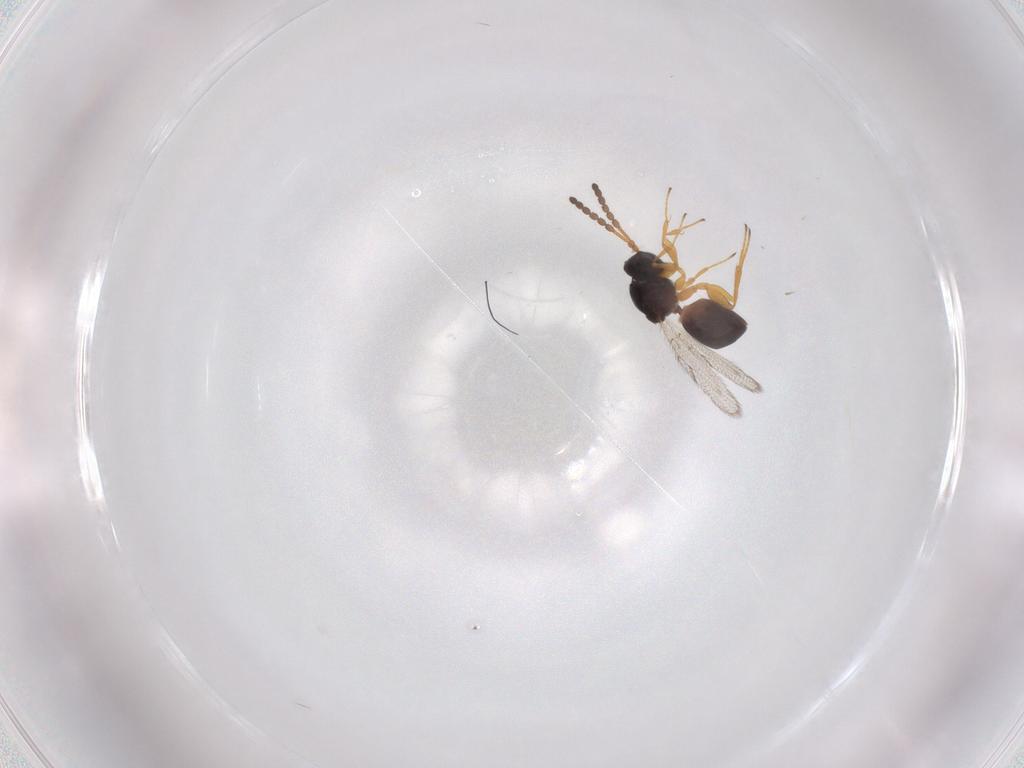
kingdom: Animalia
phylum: Arthropoda
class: Insecta
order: Hymenoptera
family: Figitidae
